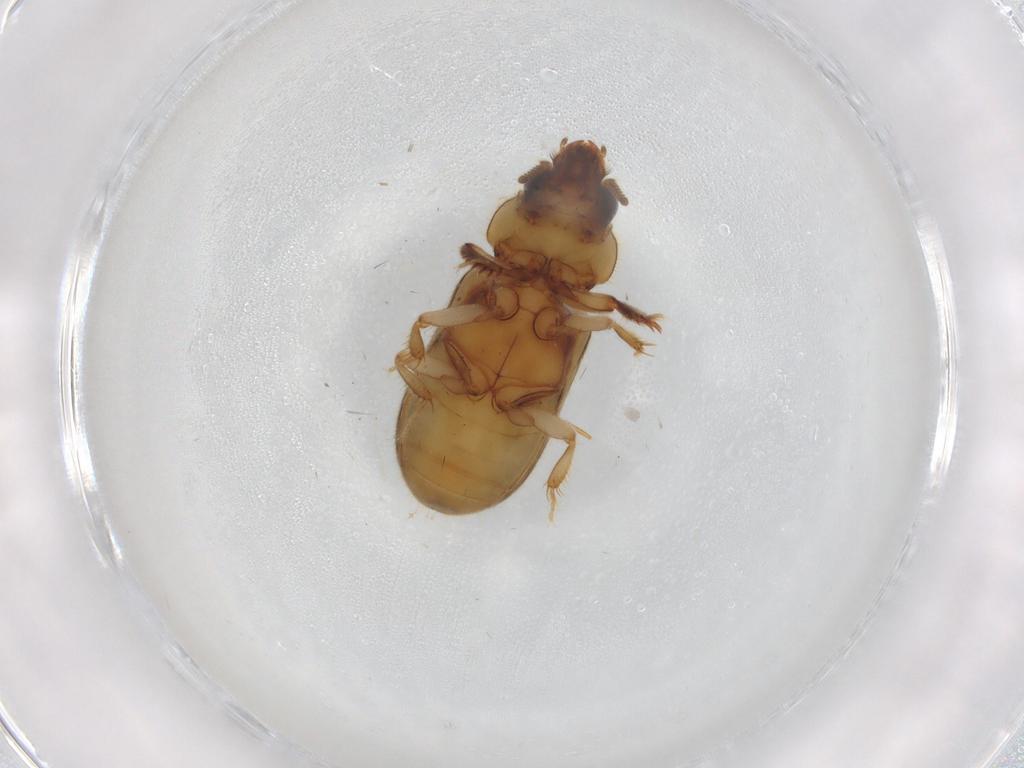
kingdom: Animalia
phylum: Arthropoda
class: Insecta
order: Coleoptera
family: Heteroceridae
